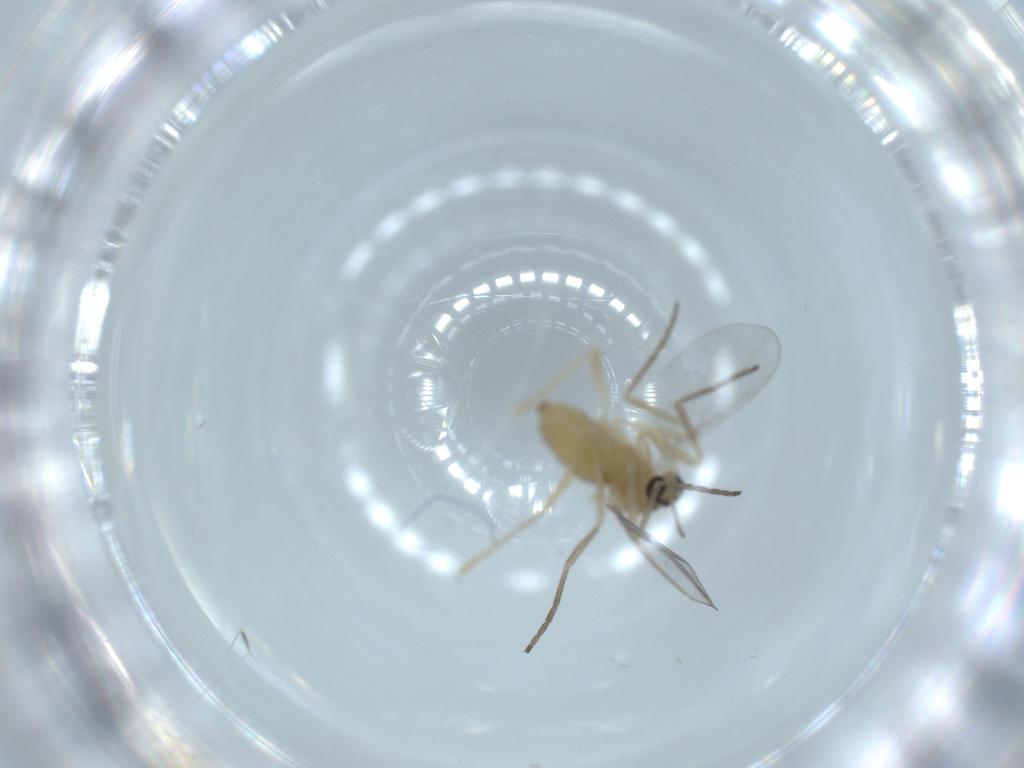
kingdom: Animalia
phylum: Arthropoda
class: Insecta
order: Diptera
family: Cecidomyiidae
